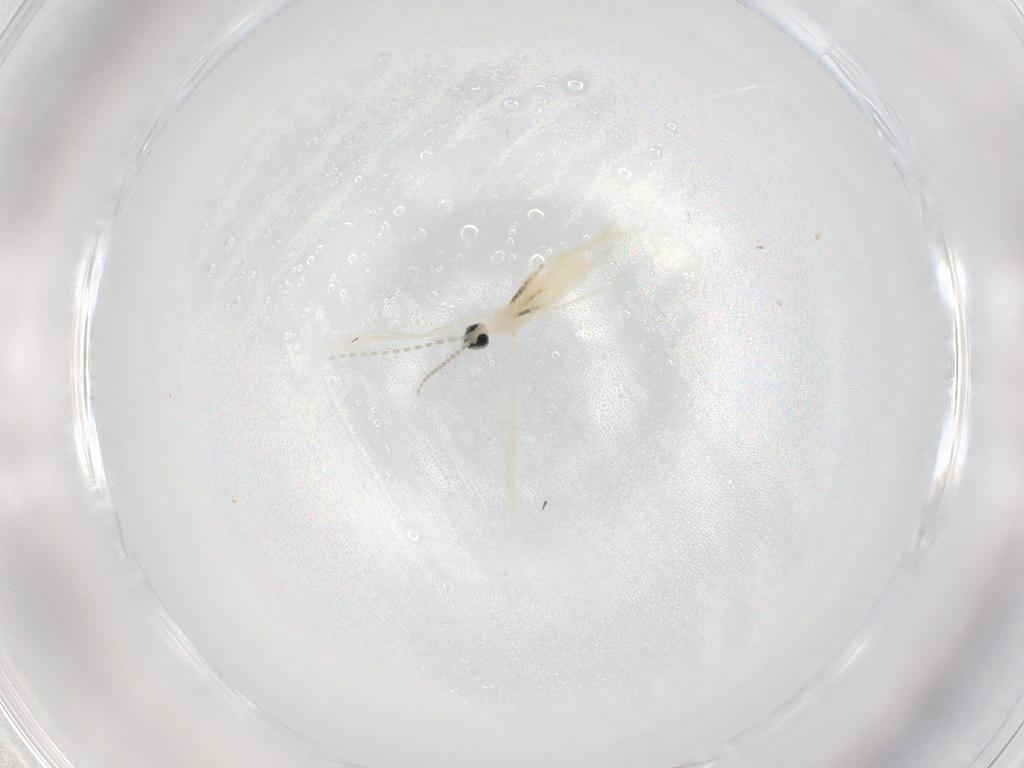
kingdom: Animalia
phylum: Arthropoda
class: Insecta
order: Diptera
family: Cecidomyiidae
